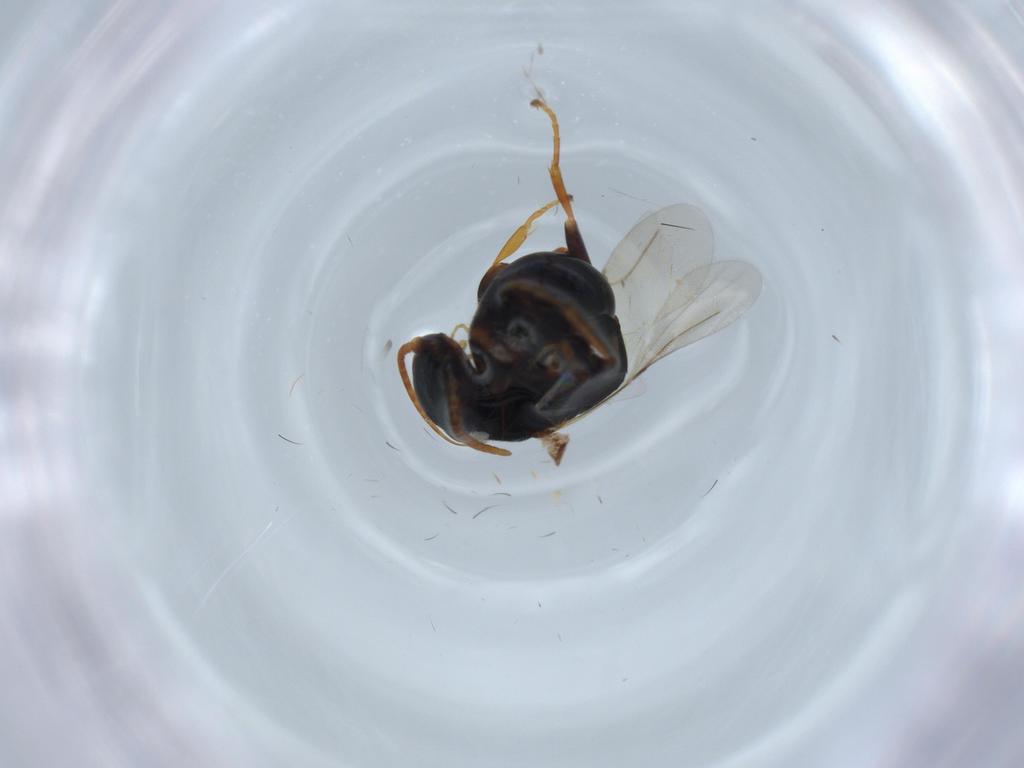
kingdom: Animalia
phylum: Arthropoda
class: Insecta
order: Hymenoptera
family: Bethylidae
